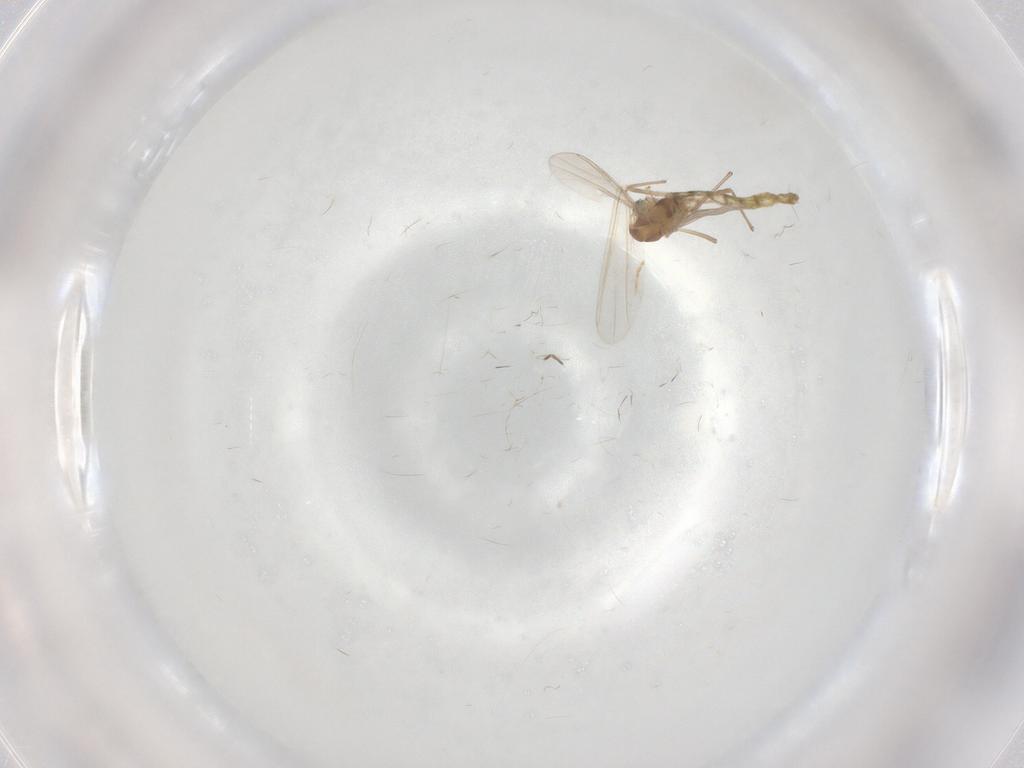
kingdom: Animalia
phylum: Arthropoda
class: Insecta
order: Diptera
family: Chironomidae
